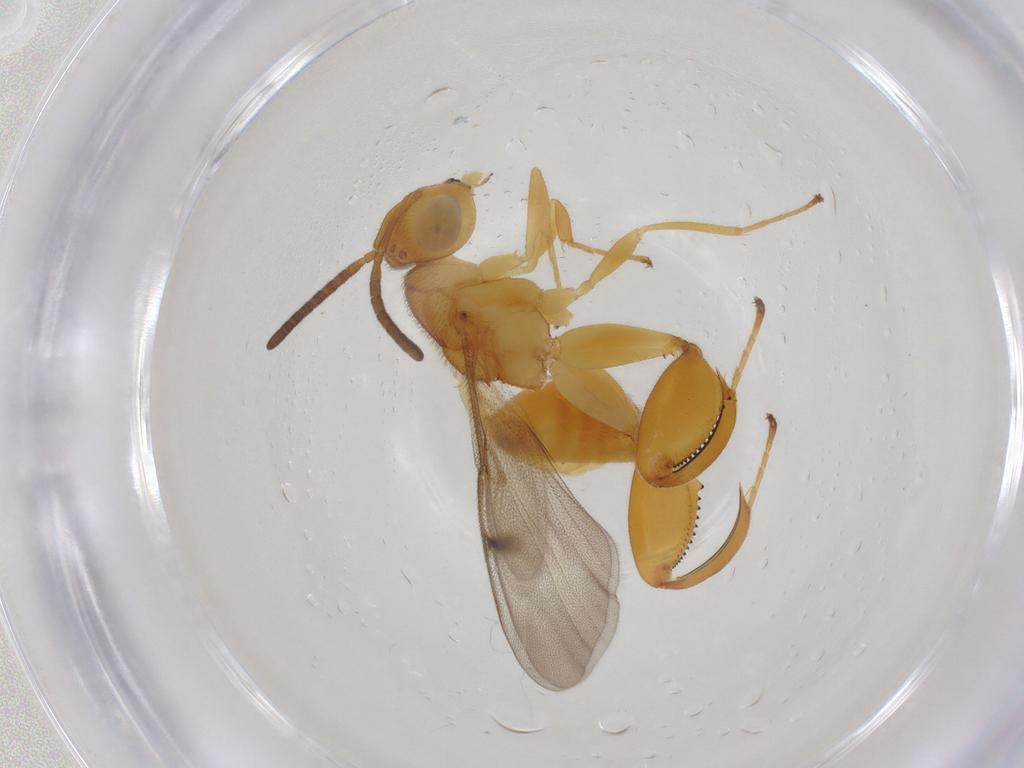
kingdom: Animalia
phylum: Arthropoda
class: Insecta
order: Hymenoptera
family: Chalcididae
